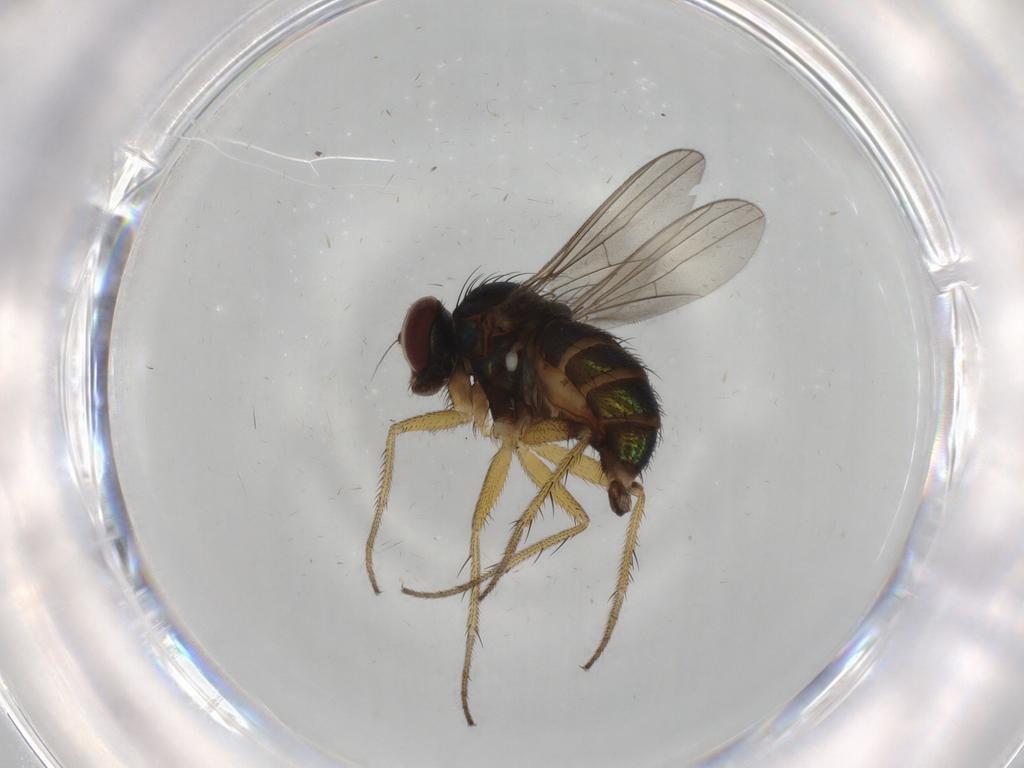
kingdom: Animalia
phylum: Arthropoda
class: Insecta
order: Diptera
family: Dolichopodidae
